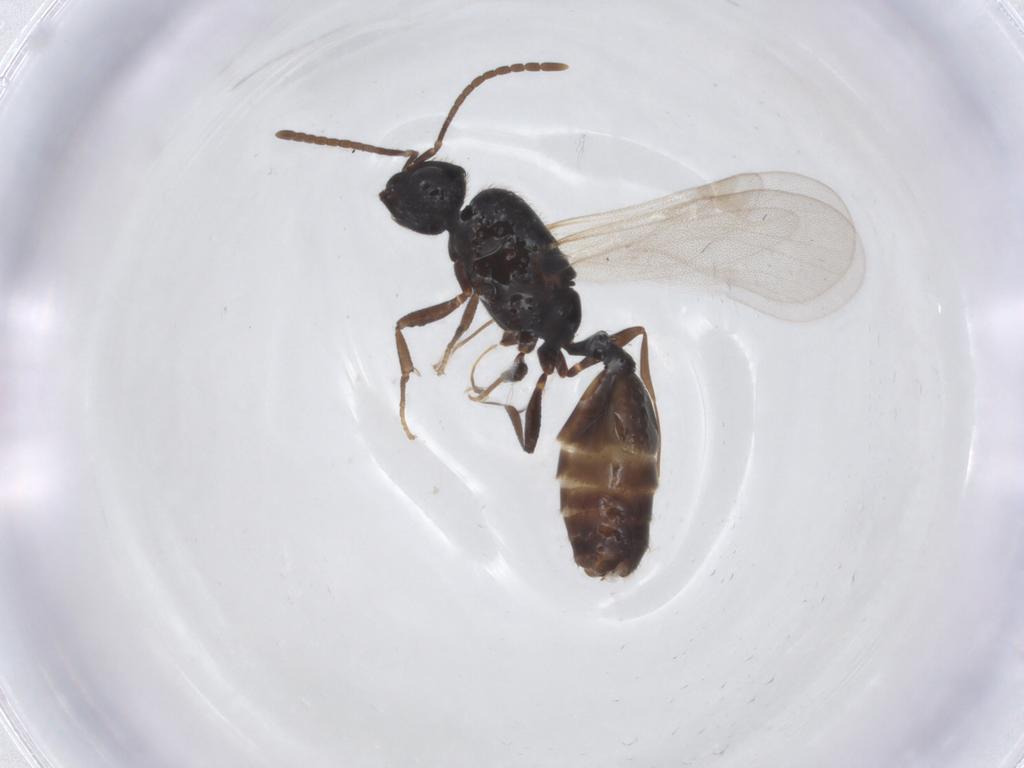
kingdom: Animalia
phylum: Arthropoda
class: Insecta
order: Hymenoptera
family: Formicidae
